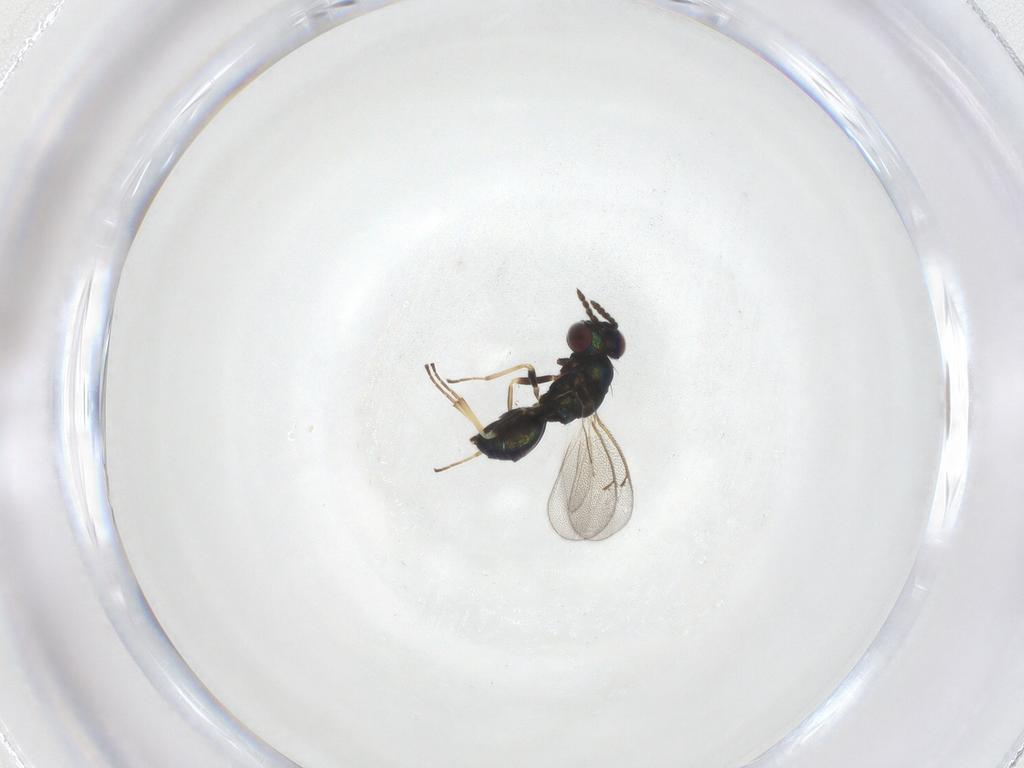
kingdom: Animalia
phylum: Arthropoda
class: Insecta
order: Hymenoptera
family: Eulophidae
